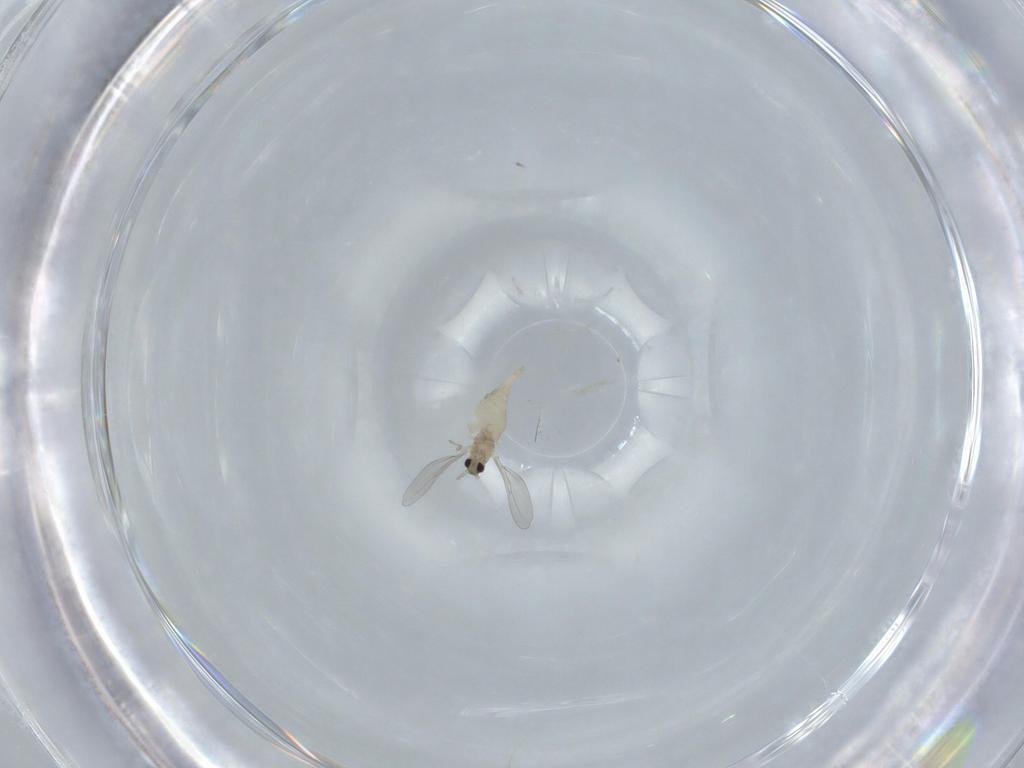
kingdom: Animalia
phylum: Arthropoda
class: Insecta
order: Diptera
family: Cecidomyiidae
